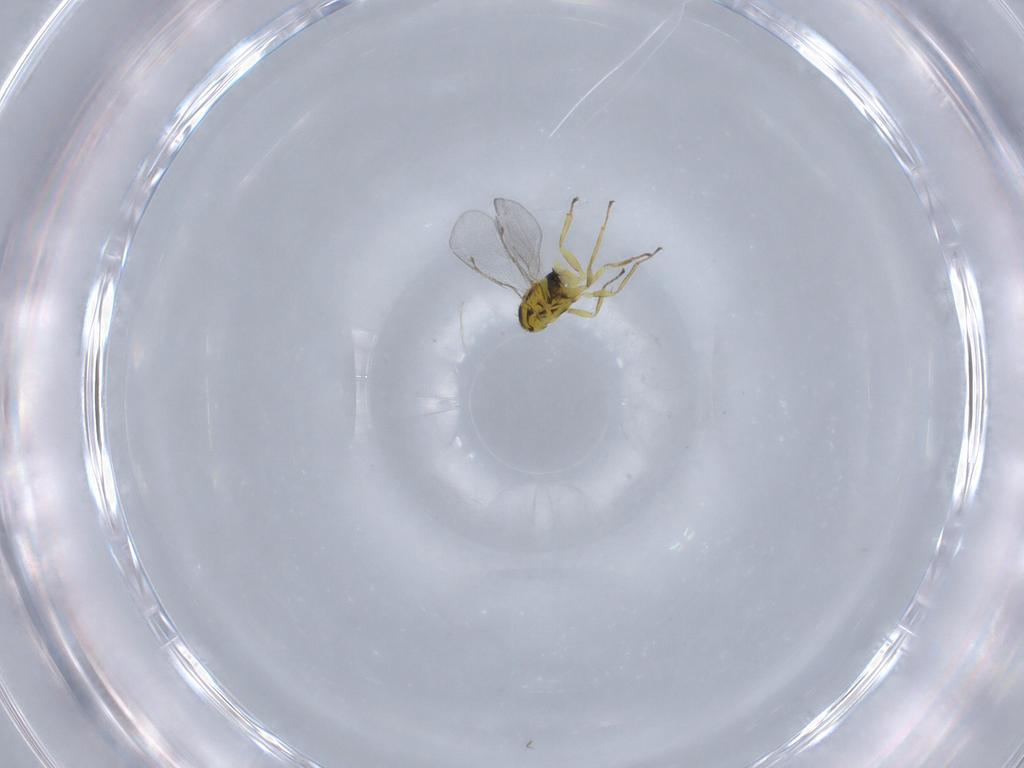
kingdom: Animalia
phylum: Arthropoda
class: Insecta
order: Hymenoptera
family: Eulophidae
